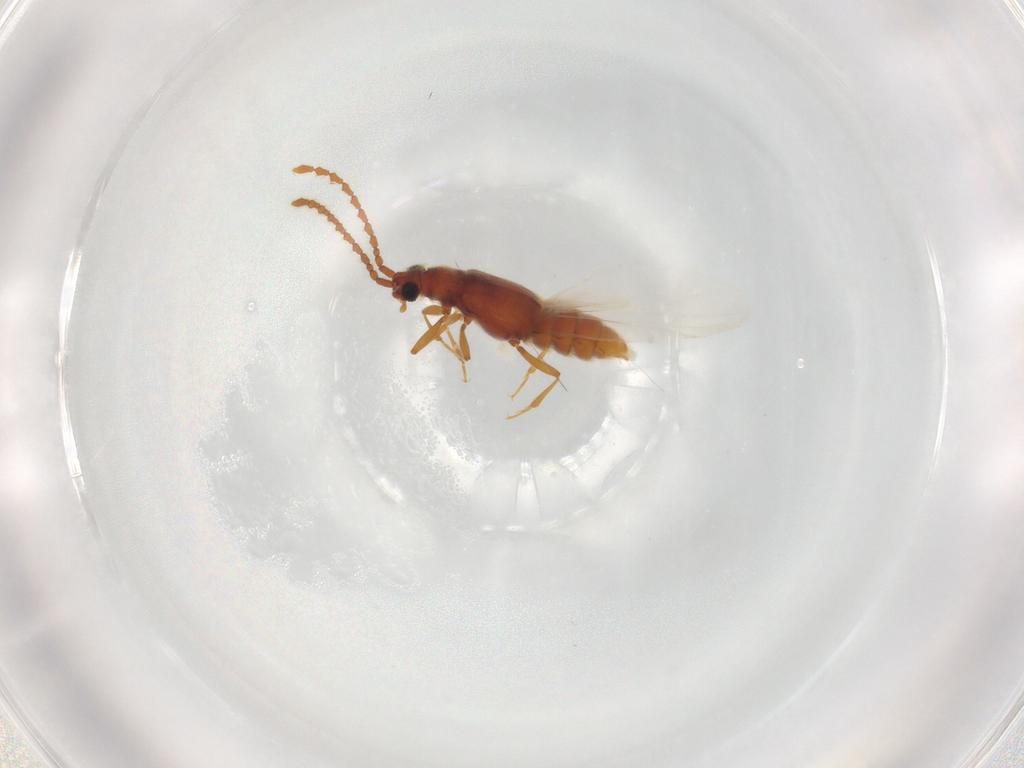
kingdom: Animalia
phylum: Arthropoda
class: Insecta
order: Coleoptera
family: Staphylinidae
